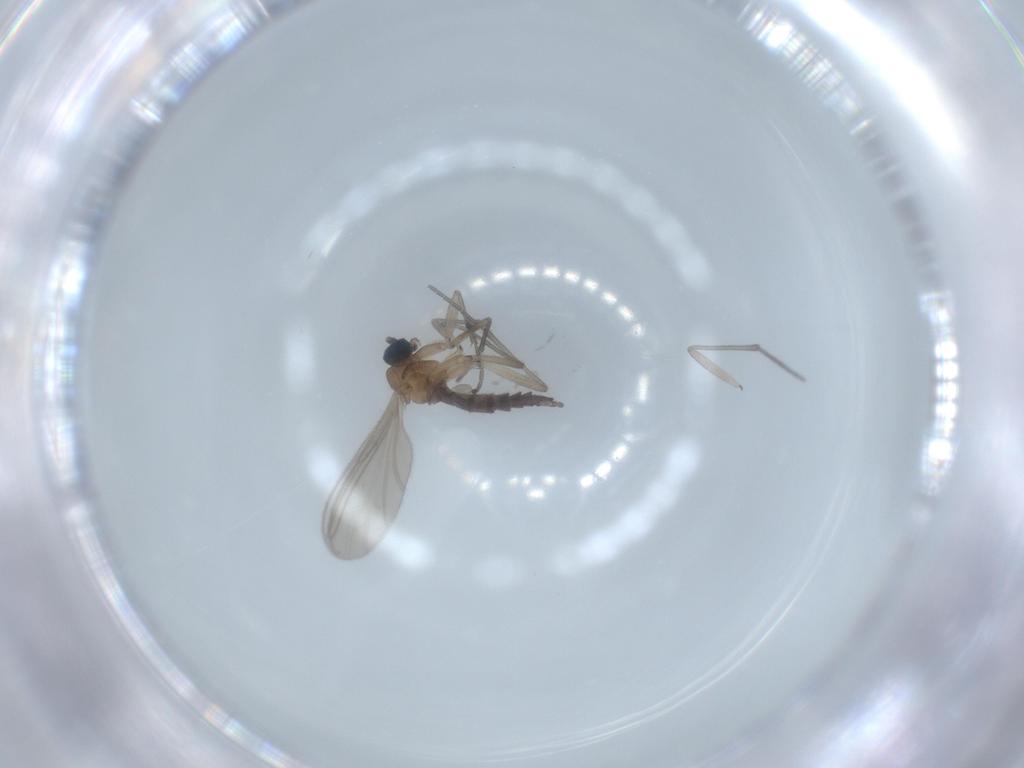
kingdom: Animalia
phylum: Arthropoda
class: Insecta
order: Diptera
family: Sciaridae
